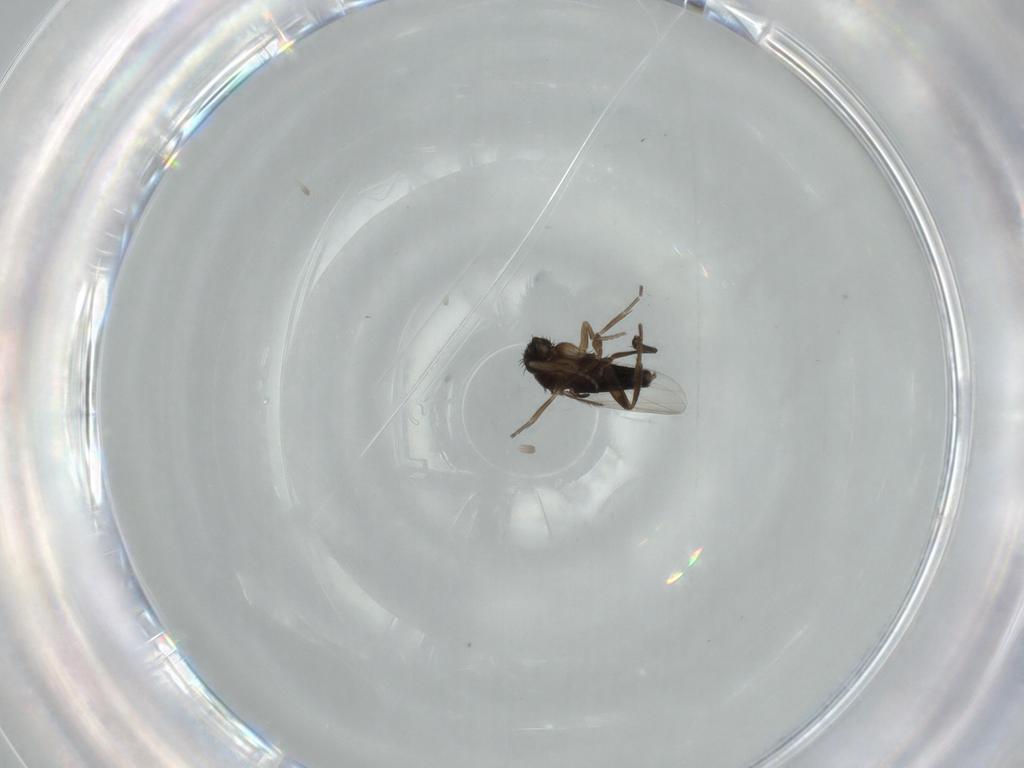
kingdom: Animalia
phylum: Arthropoda
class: Insecta
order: Diptera
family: Phoridae
